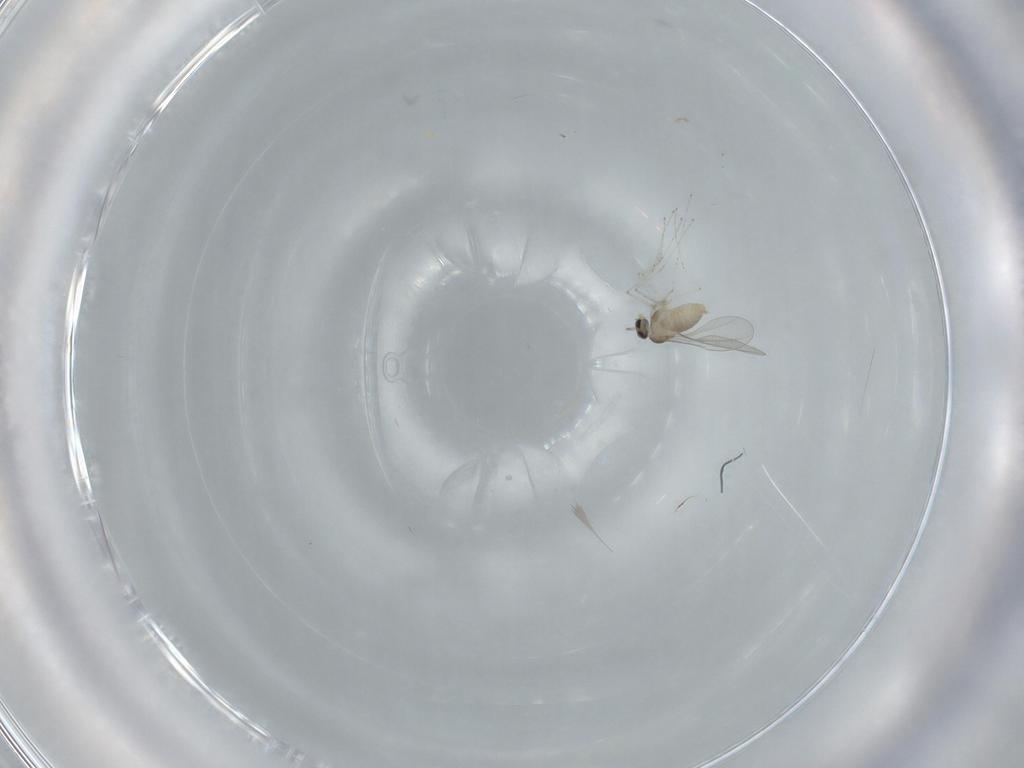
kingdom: Animalia
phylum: Arthropoda
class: Insecta
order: Diptera
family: Cecidomyiidae
